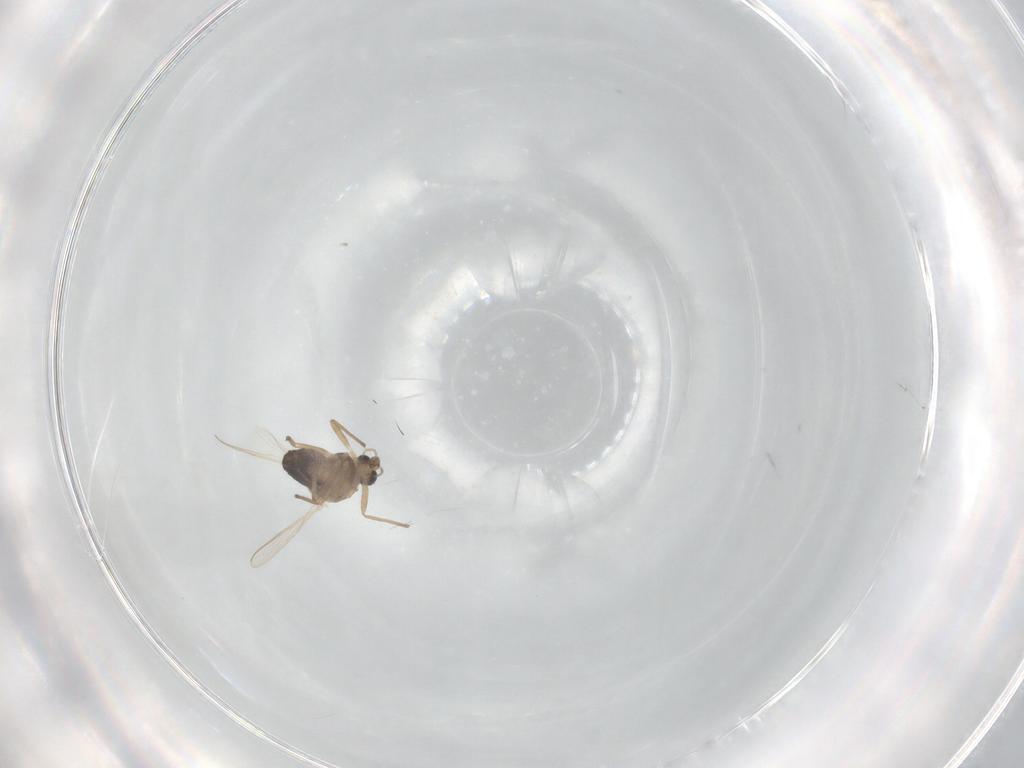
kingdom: Animalia
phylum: Arthropoda
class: Insecta
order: Diptera
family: Chironomidae
